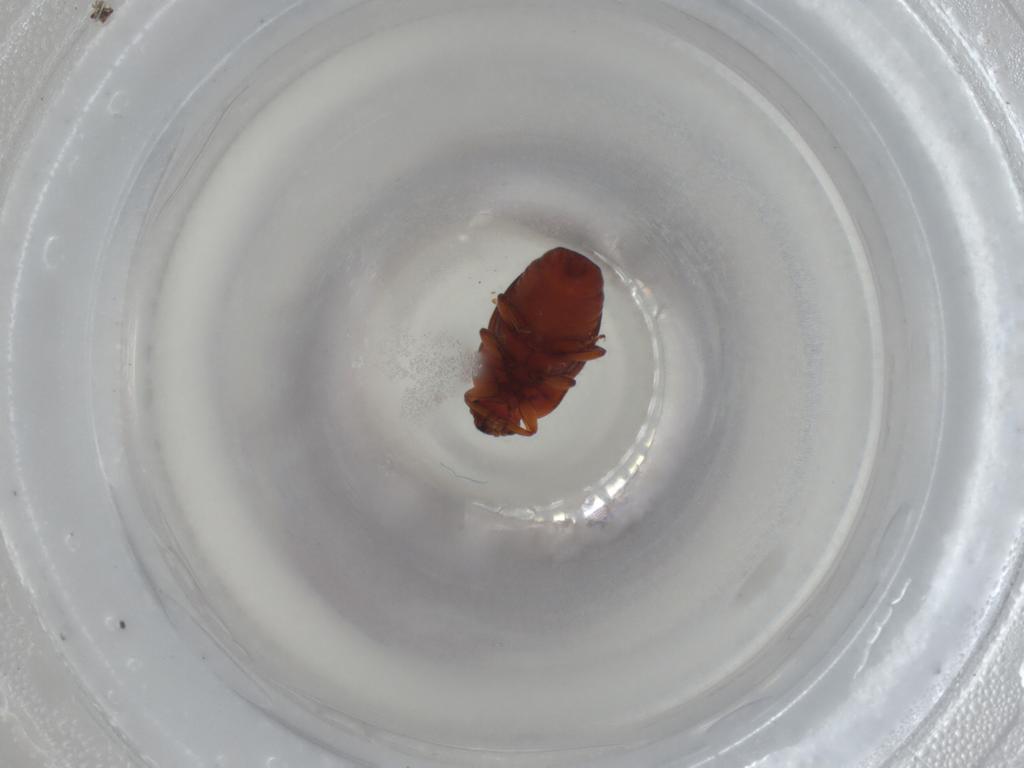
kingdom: Animalia
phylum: Arthropoda
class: Insecta
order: Coleoptera
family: Nitidulidae
